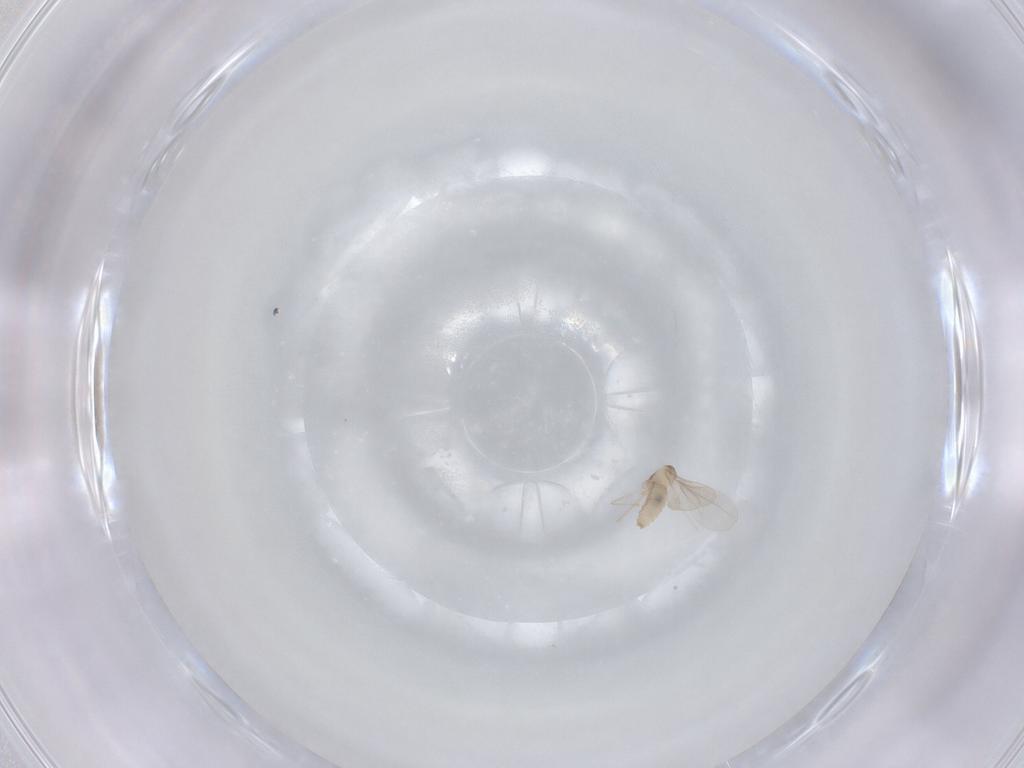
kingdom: Animalia
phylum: Arthropoda
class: Insecta
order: Diptera
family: Cecidomyiidae
